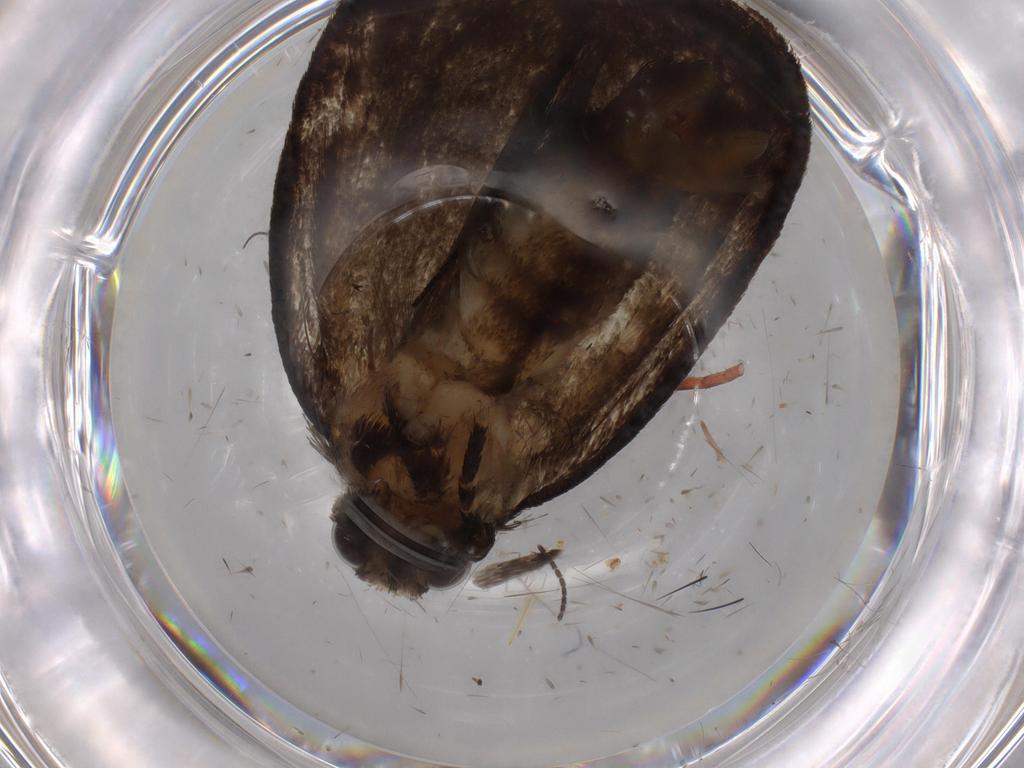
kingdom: Animalia
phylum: Arthropoda
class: Insecta
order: Lepidoptera
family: Tineidae
